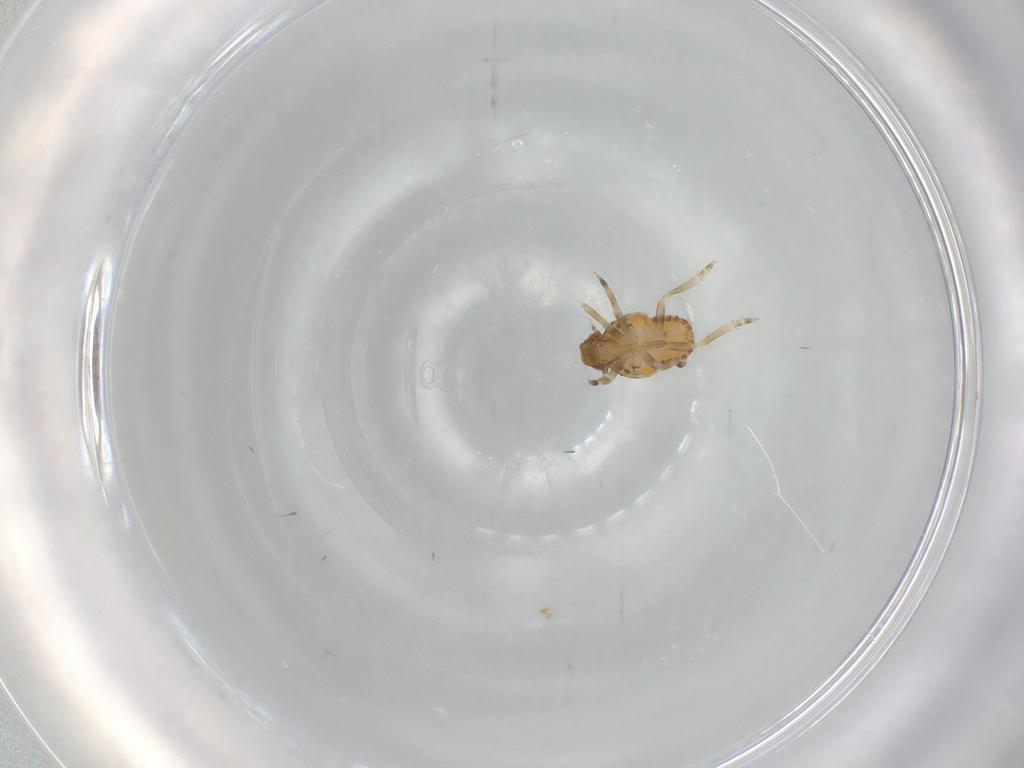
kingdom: Animalia
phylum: Arthropoda
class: Insecta
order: Hemiptera
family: Flatidae
